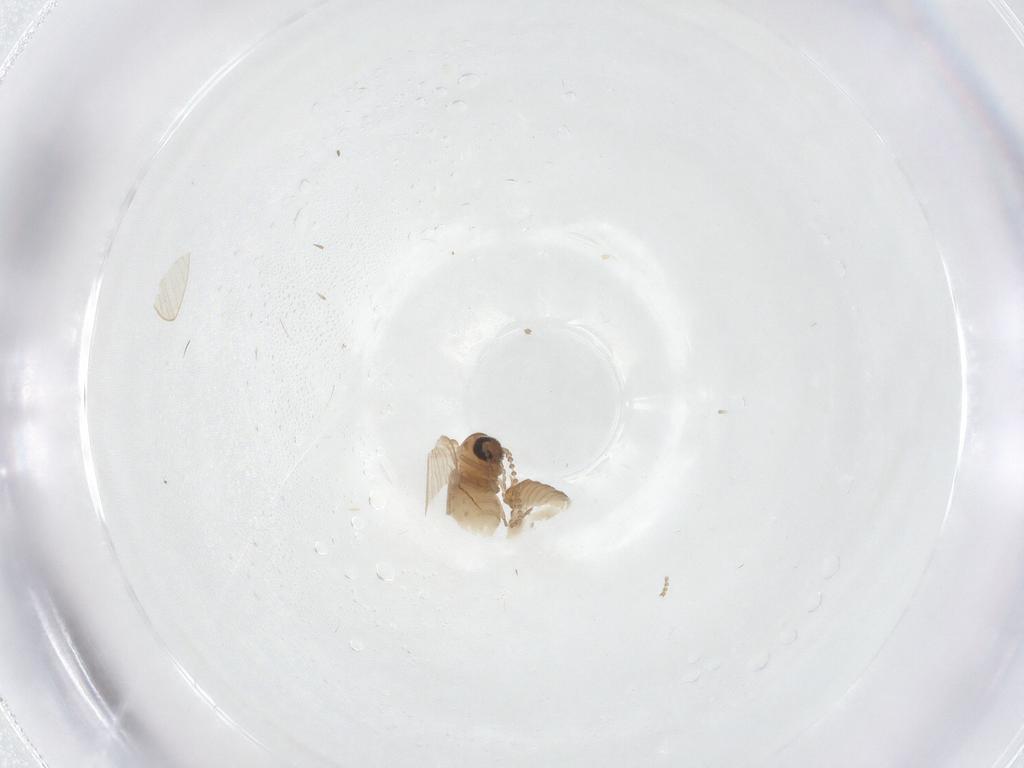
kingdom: Animalia
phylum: Arthropoda
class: Insecta
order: Diptera
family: Psychodidae
